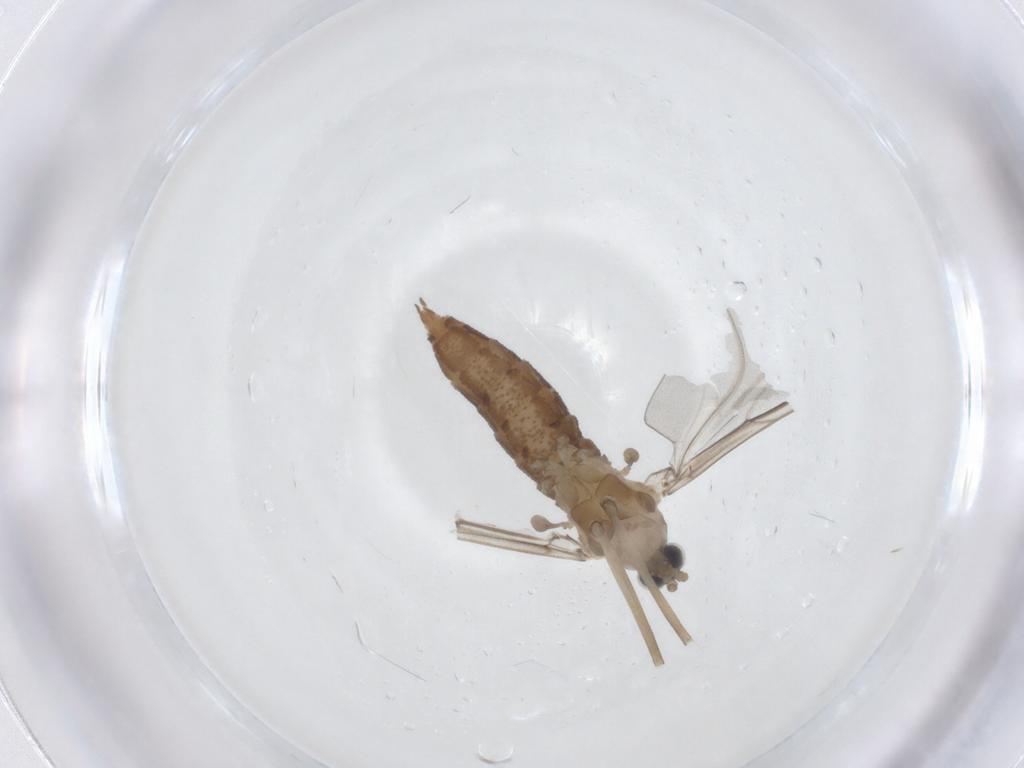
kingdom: Animalia
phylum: Arthropoda
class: Insecta
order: Diptera
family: Cecidomyiidae
